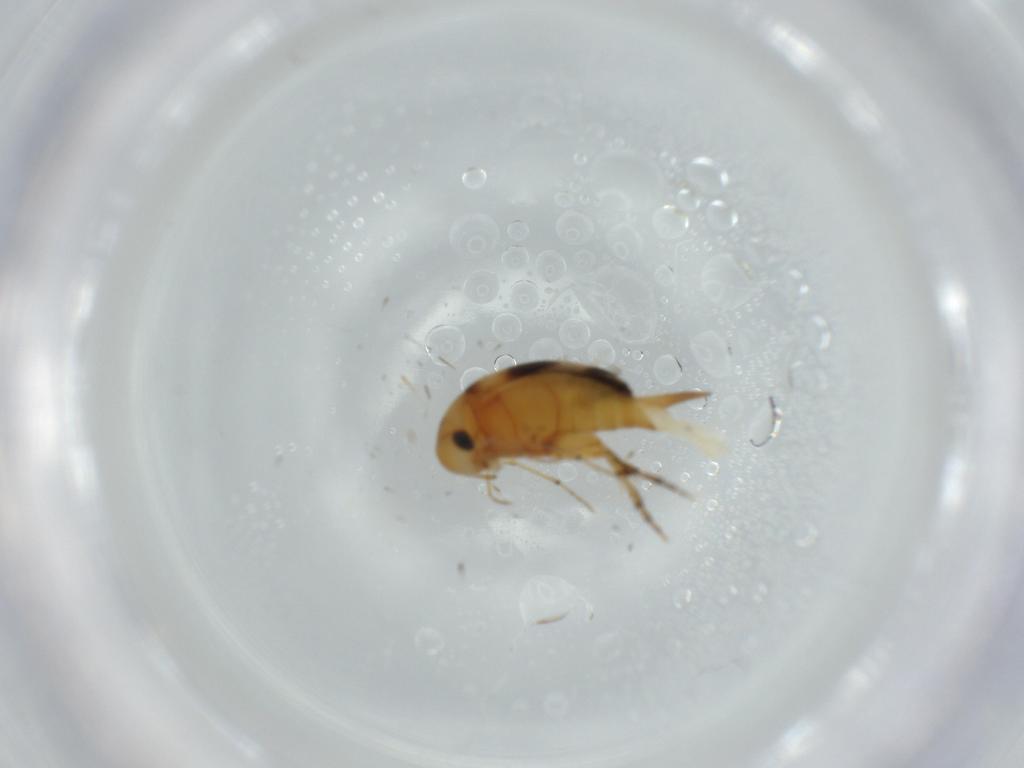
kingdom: Animalia
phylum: Arthropoda
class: Insecta
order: Coleoptera
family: Mordellidae
